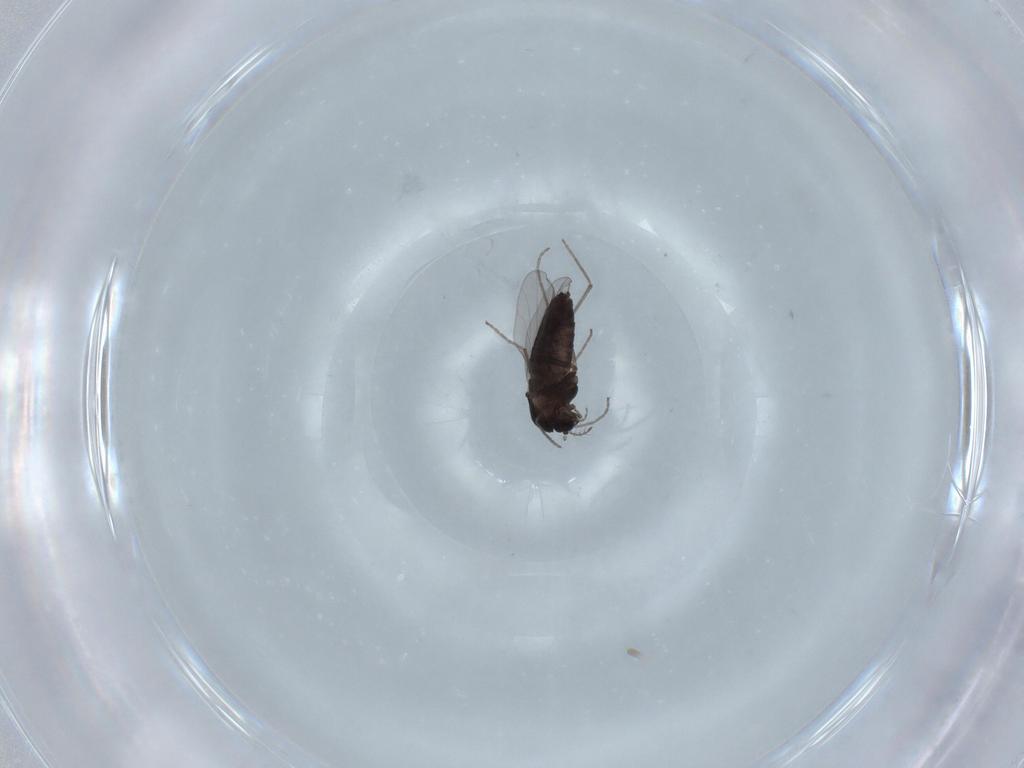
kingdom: Animalia
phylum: Arthropoda
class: Insecta
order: Diptera
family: Chironomidae
